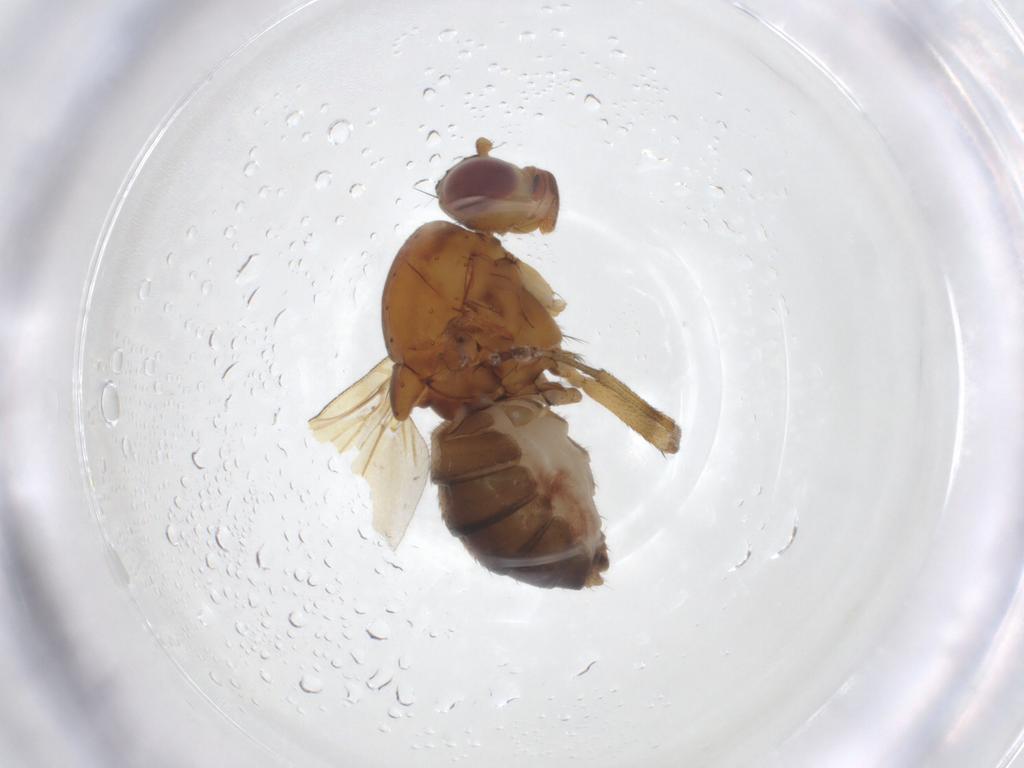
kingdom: Animalia
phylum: Arthropoda
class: Insecta
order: Diptera
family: Lauxaniidae
